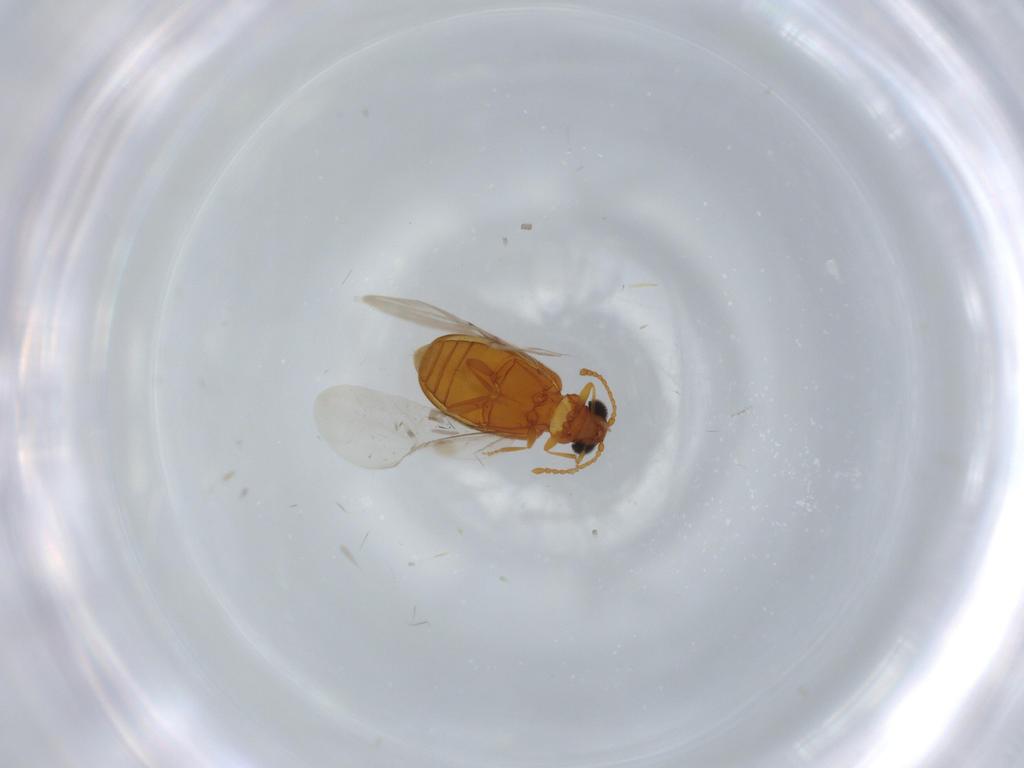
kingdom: Animalia
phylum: Arthropoda
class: Insecta
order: Coleoptera
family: Aderidae
